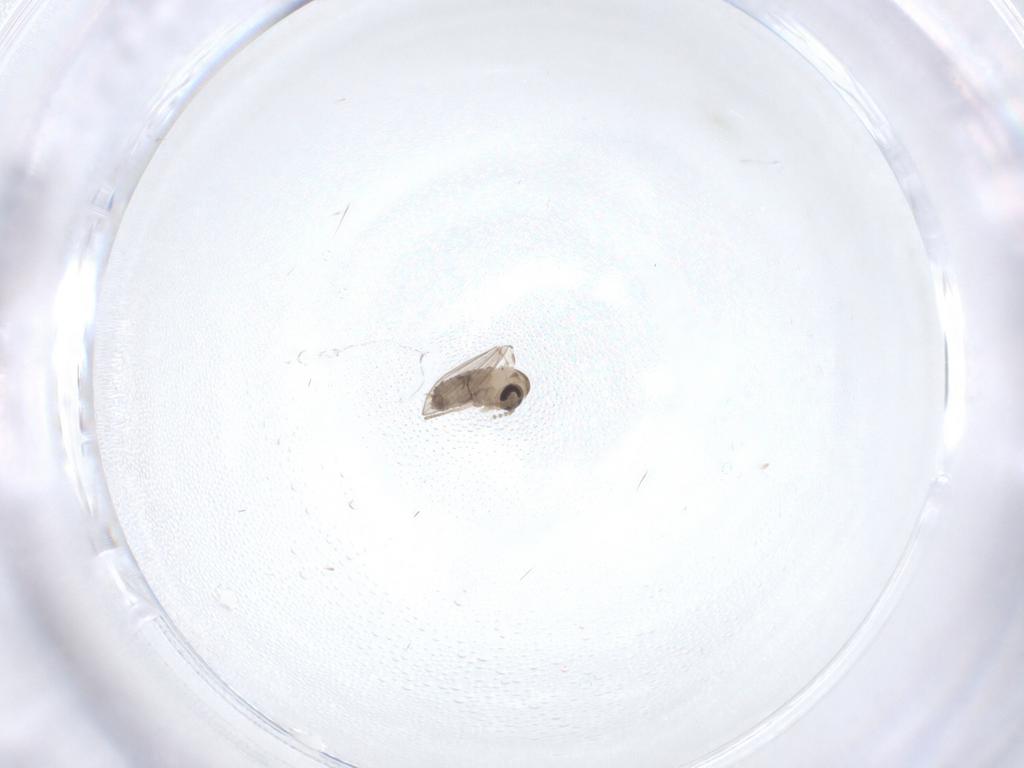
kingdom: Animalia
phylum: Arthropoda
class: Insecta
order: Diptera
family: Psychodidae
